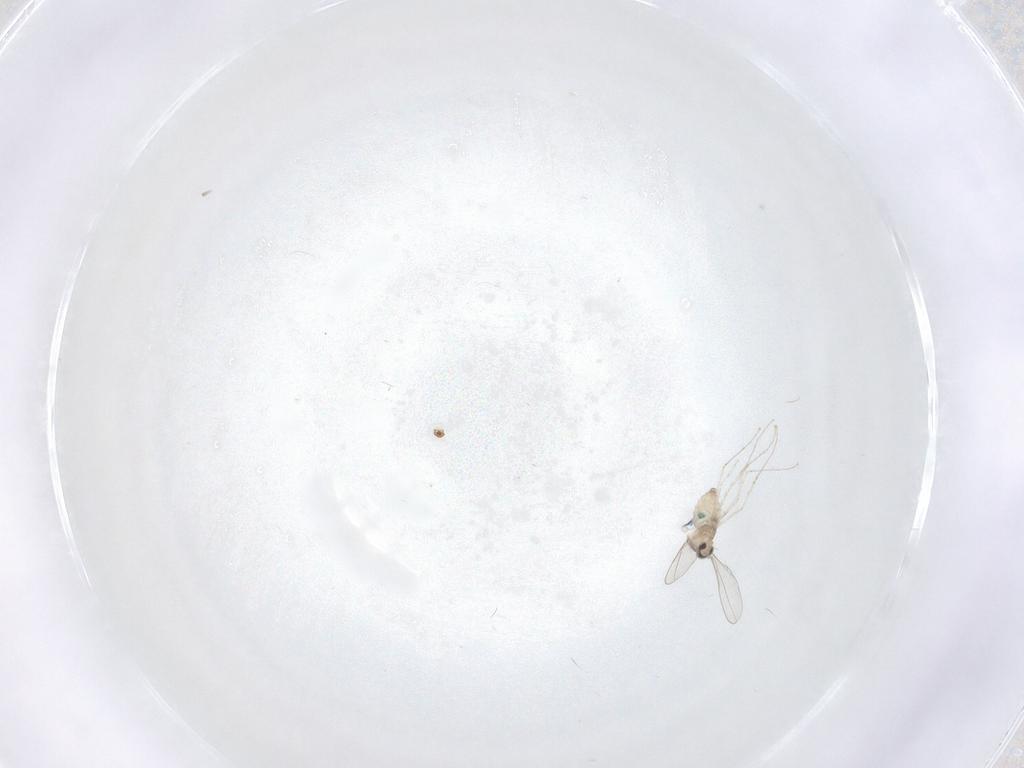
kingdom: Animalia
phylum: Arthropoda
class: Insecta
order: Diptera
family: Cecidomyiidae
